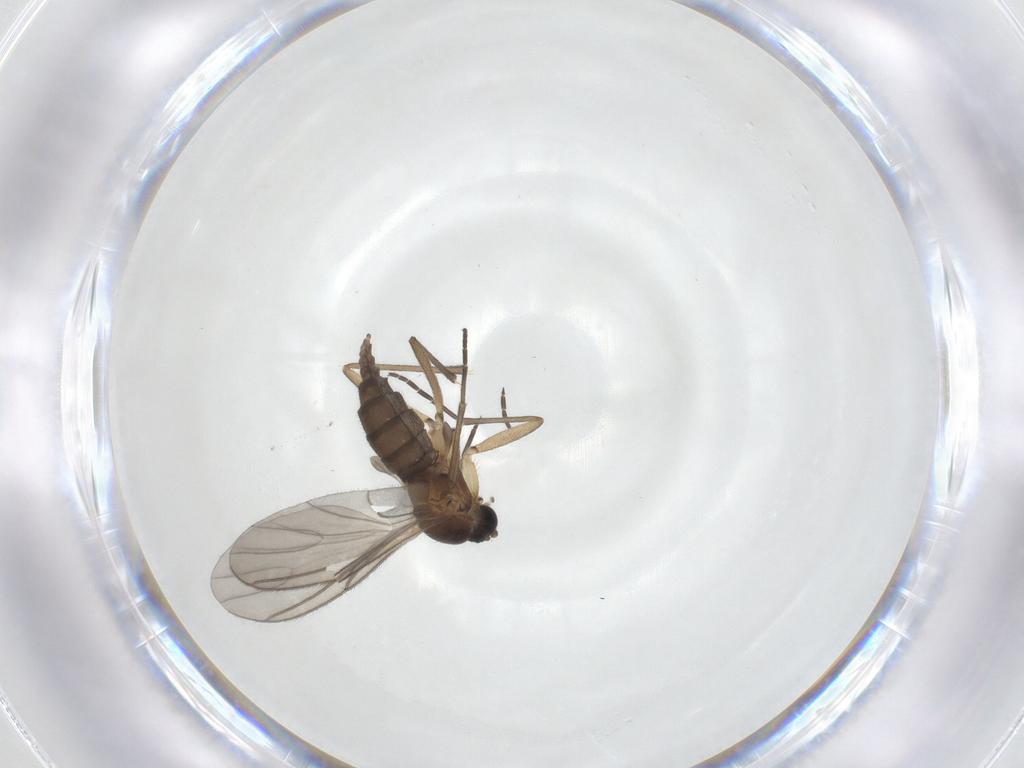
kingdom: Animalia
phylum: Arthropoda
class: Insecta
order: Diptera
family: Sciaridae
